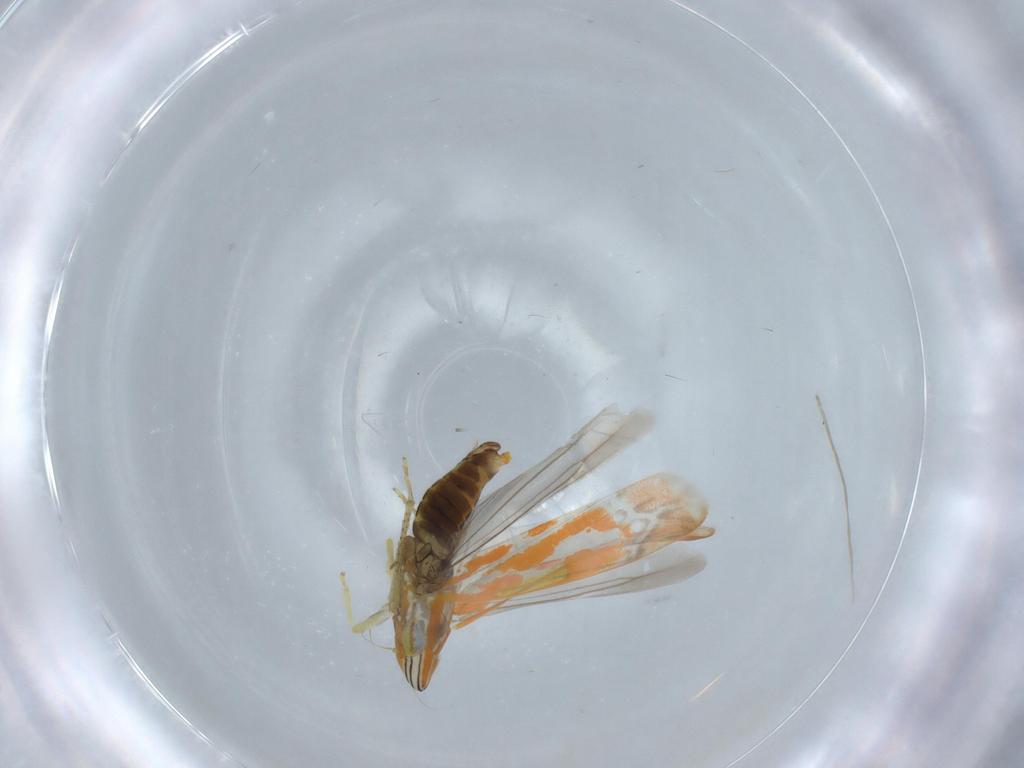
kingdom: Animalia
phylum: Arthropoda
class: Insecta
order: Hemiptera
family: Cicadellidae
